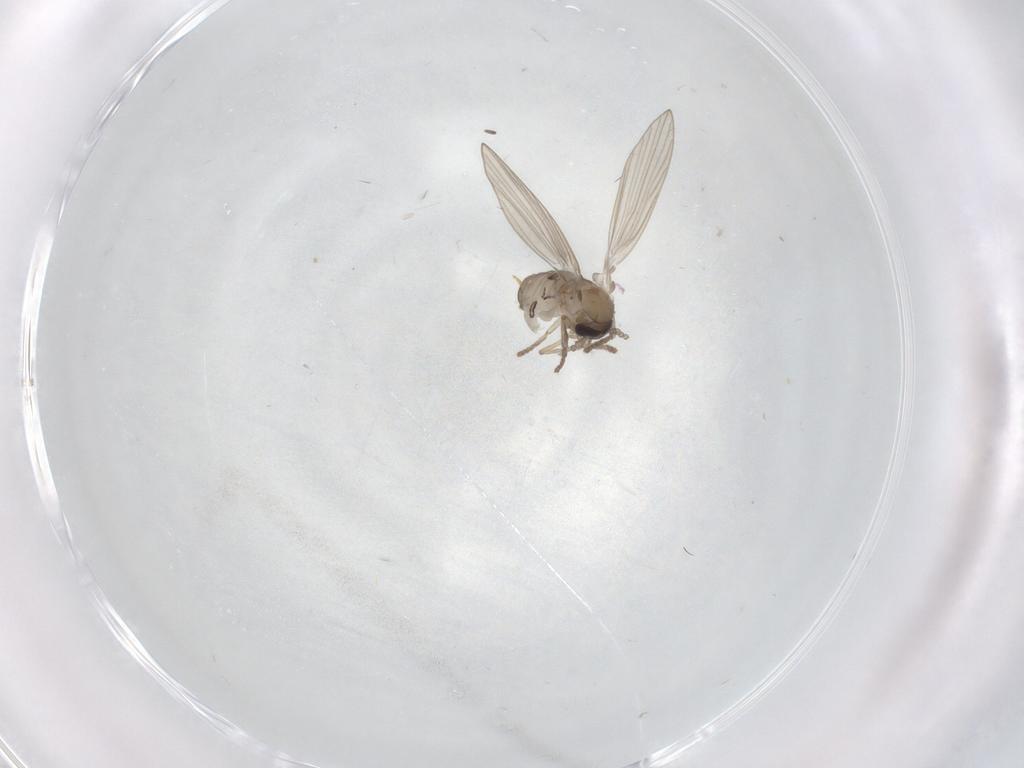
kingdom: Animalia
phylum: Arthropoda
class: Insecta
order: Diptera
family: Psychodidae
